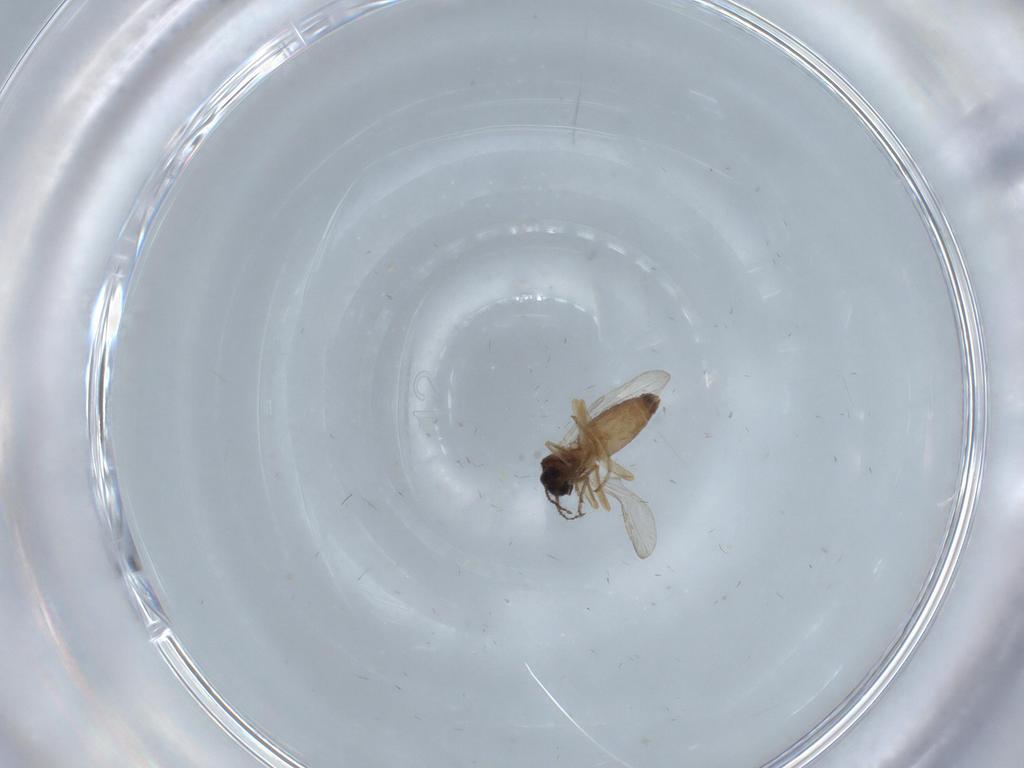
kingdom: Animalia
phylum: Arthropoda
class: Insecta
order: Diptera
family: Ceratopogonidae
